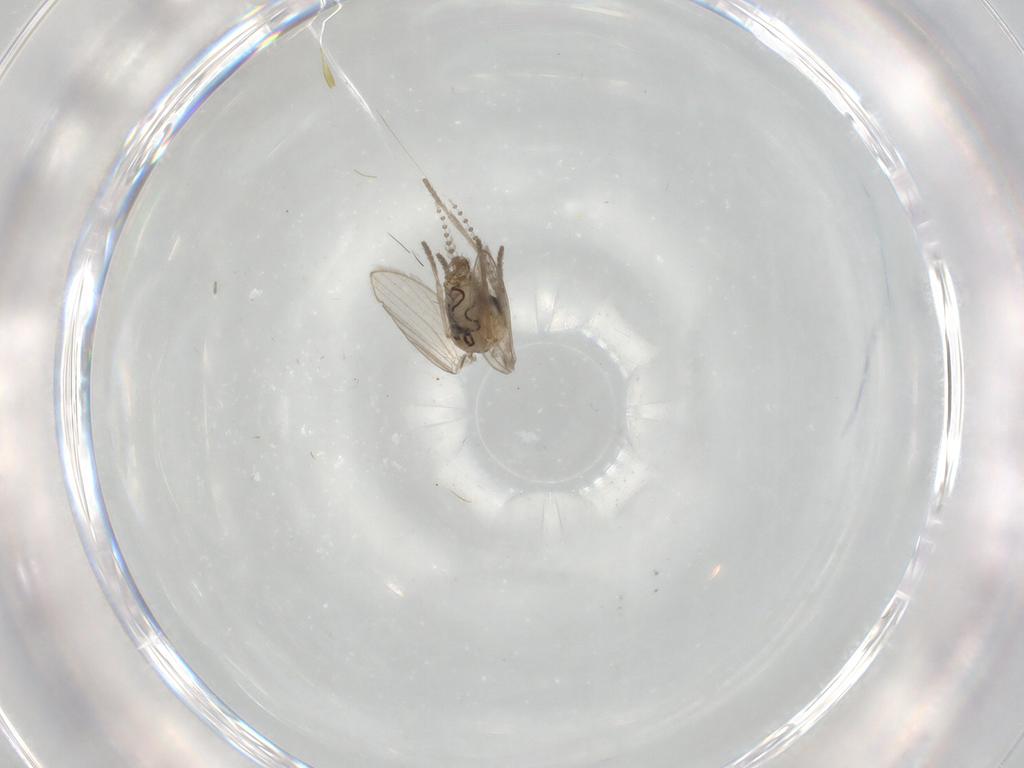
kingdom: Animalia
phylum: Arthropoda
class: Insecta
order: Diptera
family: Psychodidae
